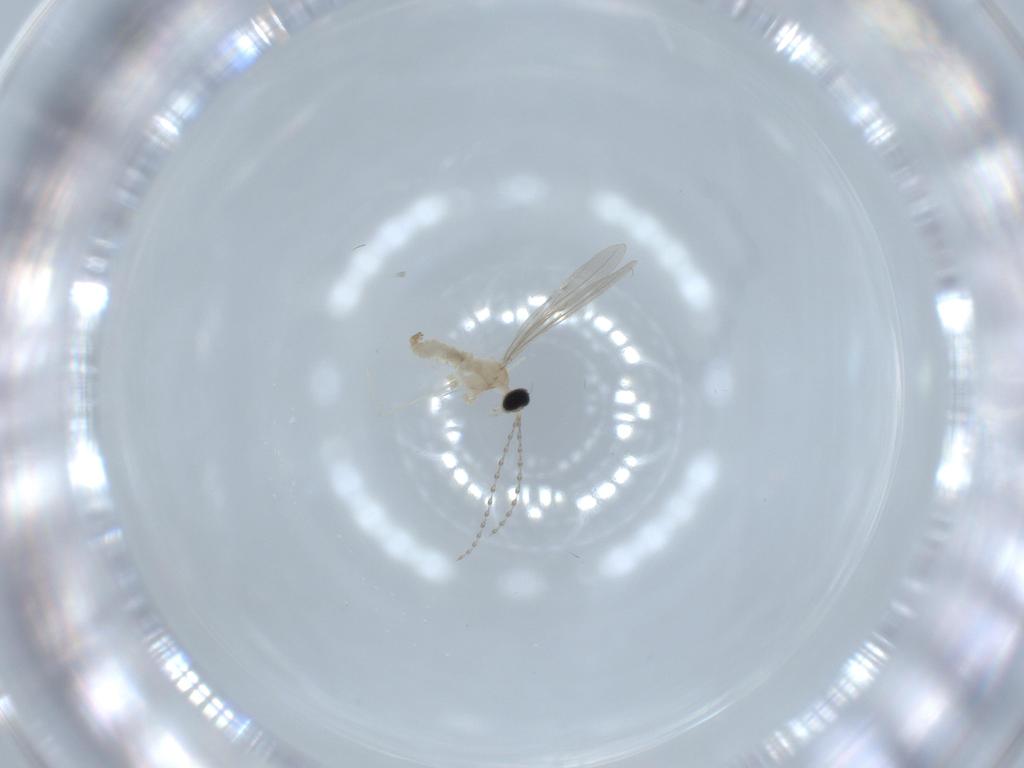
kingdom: Animalia
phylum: Arthropoda
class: Insecta
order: Diptera
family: Cecidomyiidae
